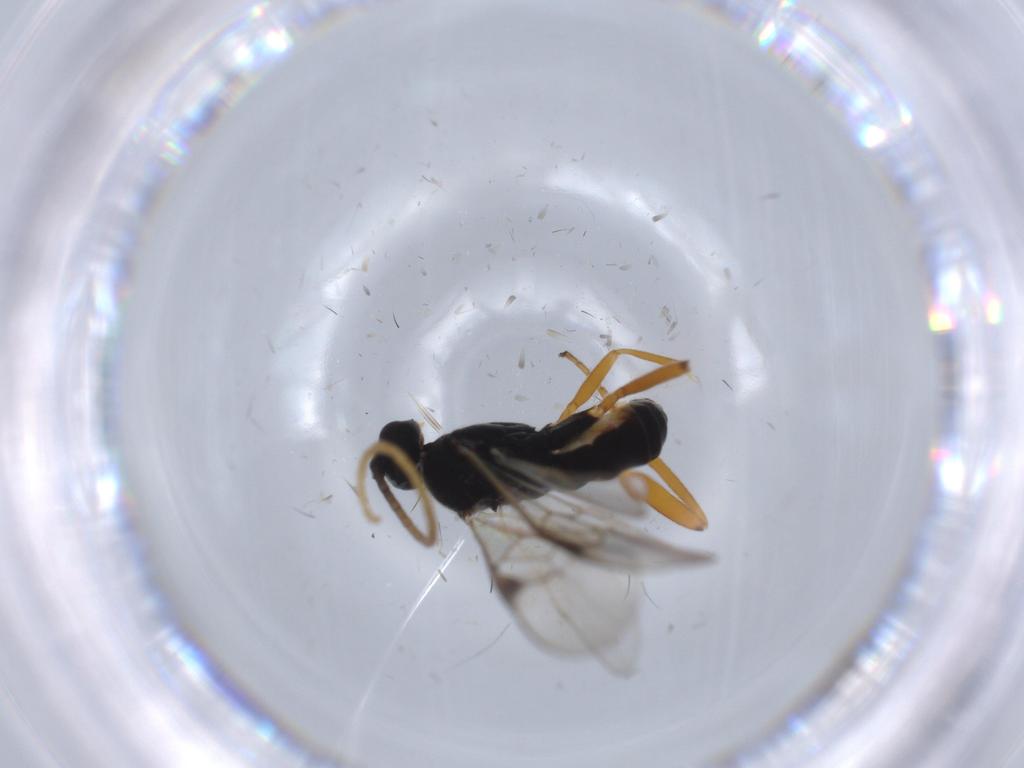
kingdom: Animalia
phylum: Arthropoda
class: Insecta
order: Hymenoptera
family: Braconidae
